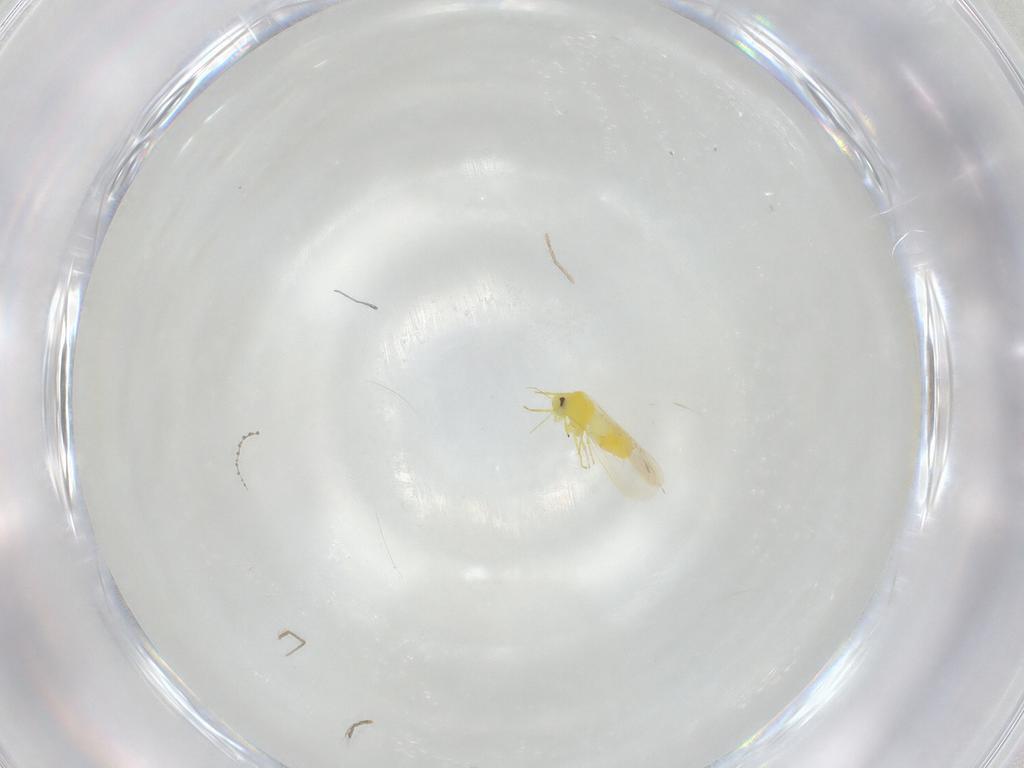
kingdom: Animalia
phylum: Arthropoda
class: Insecta
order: Hemiptera
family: Aleyrodidae
